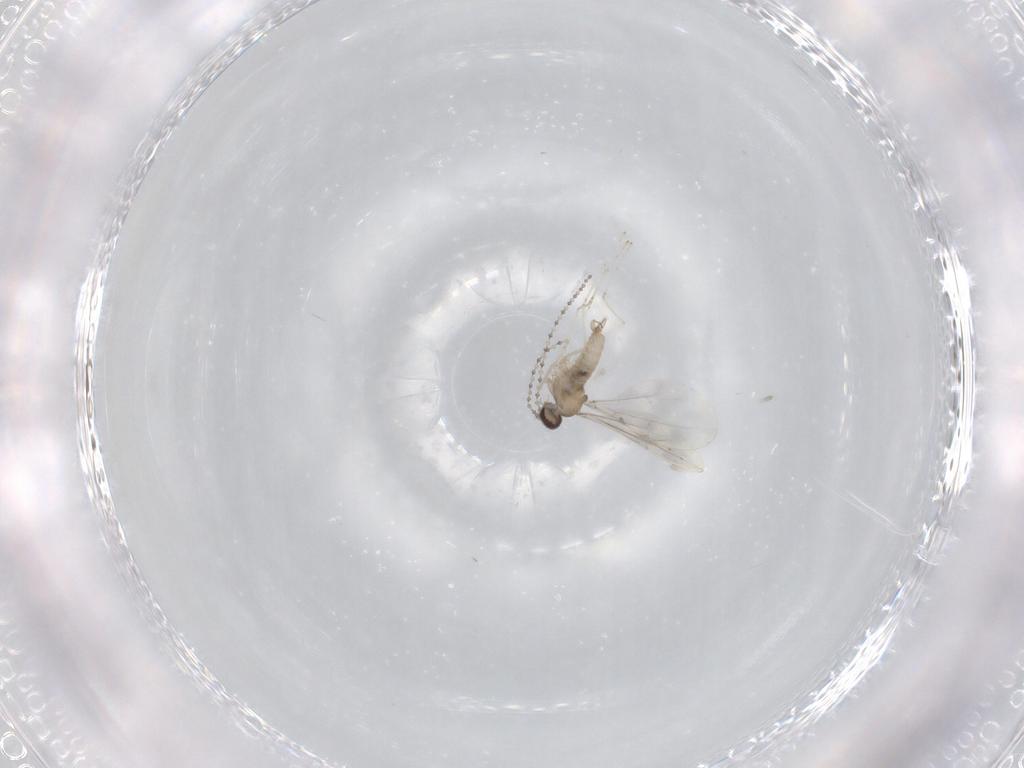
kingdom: Animalia
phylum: Arthropoda
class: Insecta
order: Diptera
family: Cecidomyiidae
